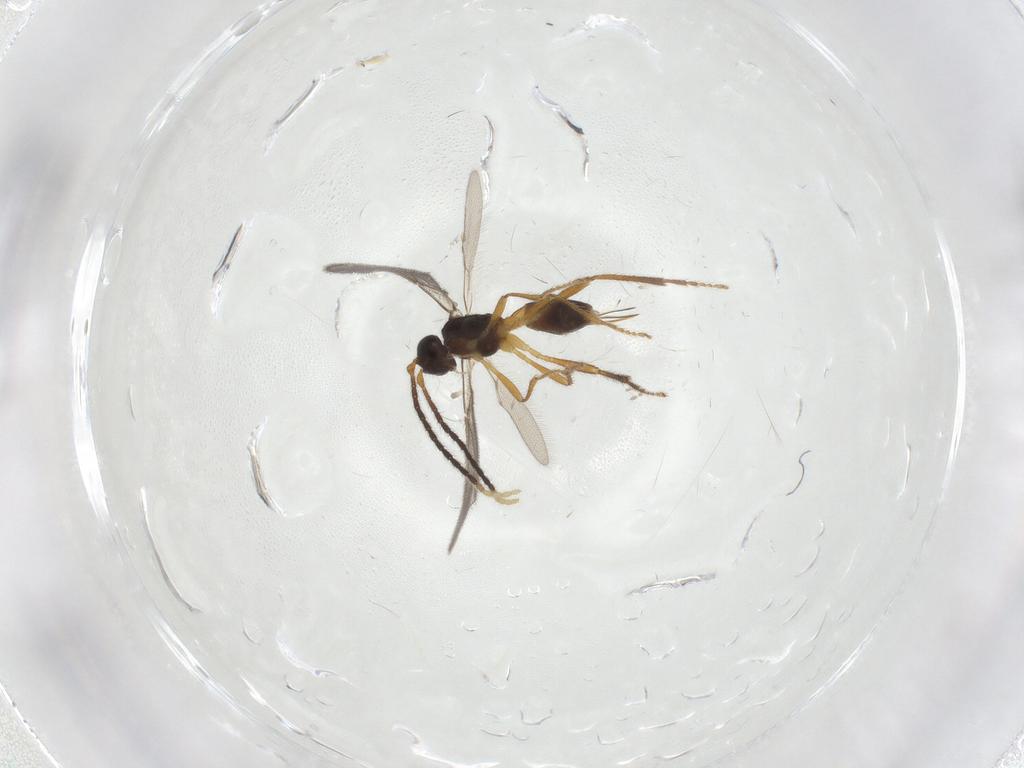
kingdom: Animalia
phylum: Arthropoda
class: Insecta
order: Hymenoptera
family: Braconidae
